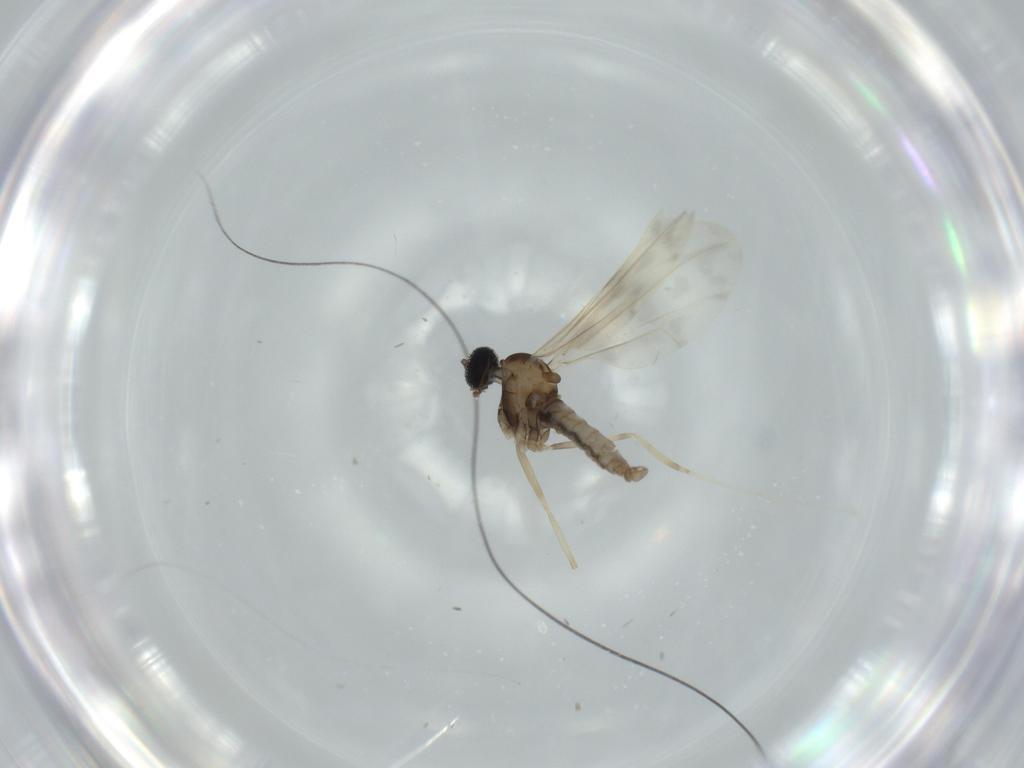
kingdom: Animalia
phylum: Arthropoda
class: Insecta
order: Diptera
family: Cecidomyiidae
